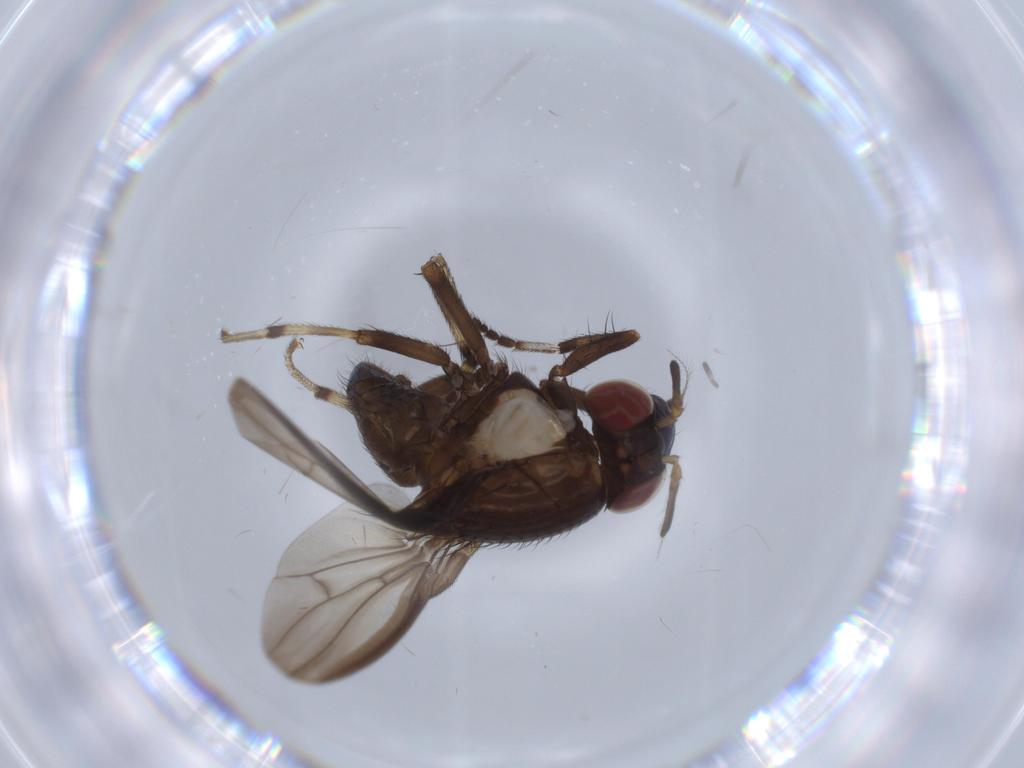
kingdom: Animalia
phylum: Arthropoda
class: Insecta
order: Diptera
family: Sciaridae
